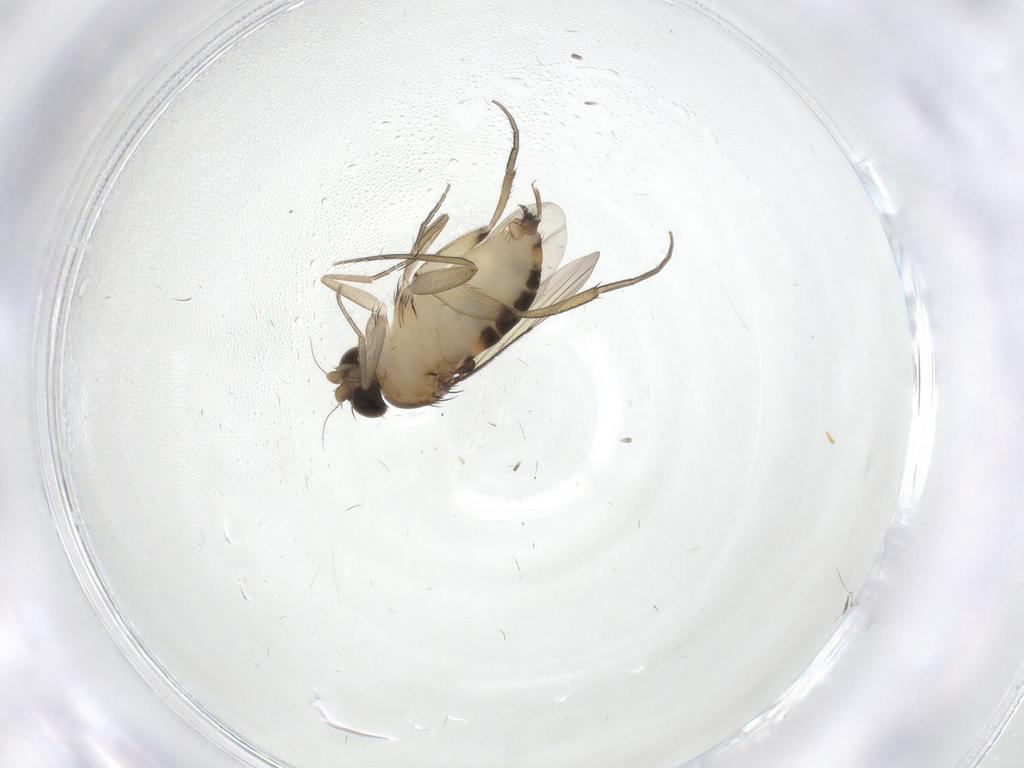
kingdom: Animalia
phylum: Arthropoda
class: Insecta
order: Diptera
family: Phoridae
